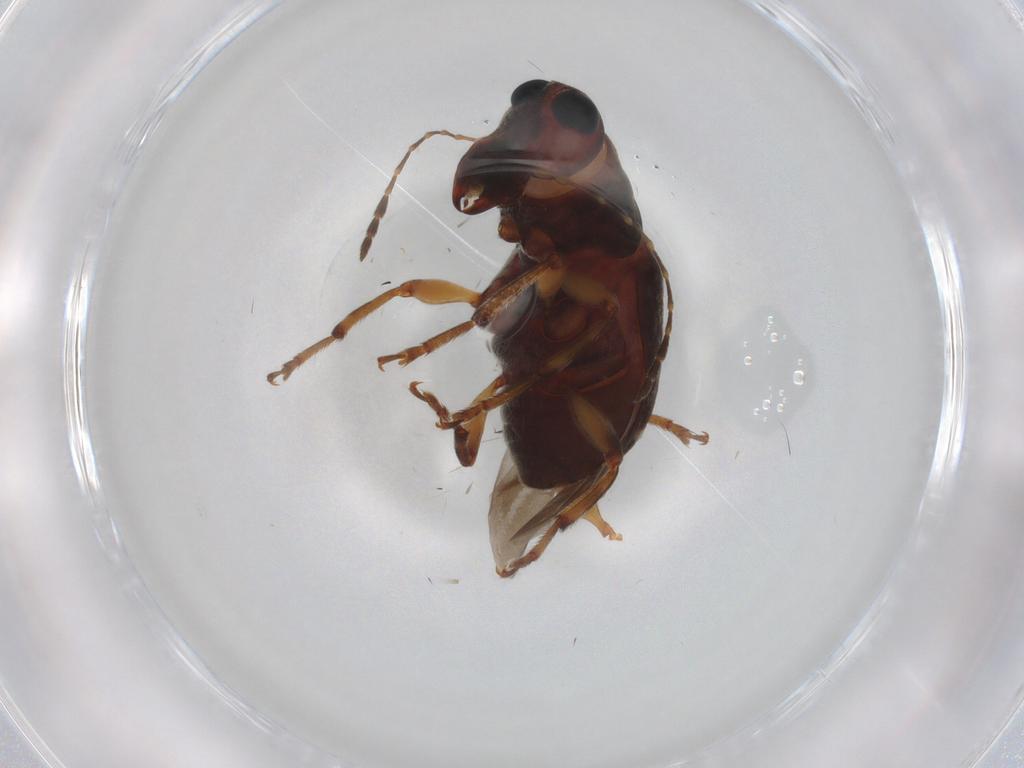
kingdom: Animalia
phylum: Arthropoda
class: Insecta
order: Coleoptera
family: Anthribidae
